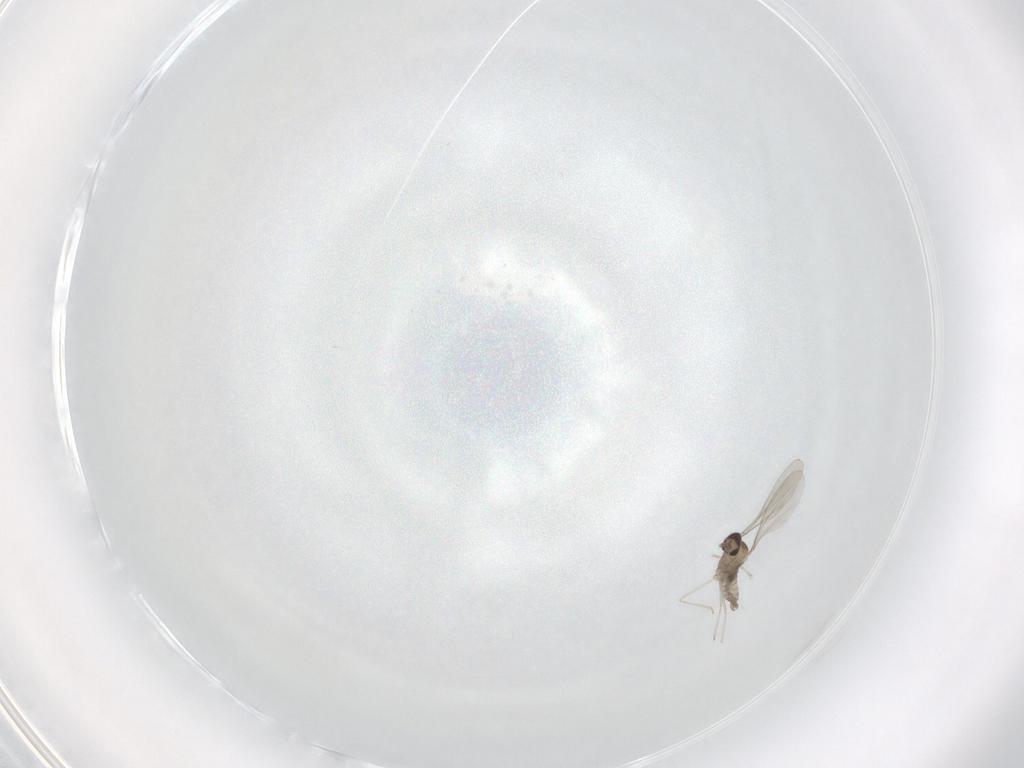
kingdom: Animalia
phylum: Arthropoda
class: Insecta
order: Diptera
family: Cecidomyiidae
